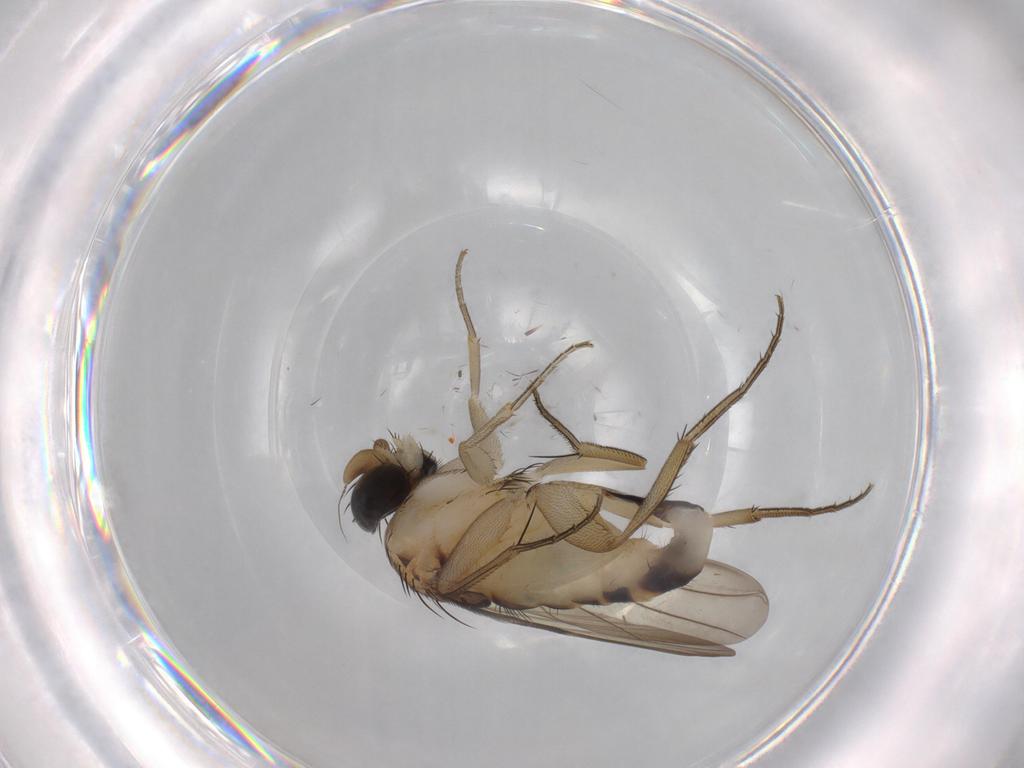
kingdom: Animalia
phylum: Arthropoda
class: Insecta
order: Diptera
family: Phoridae
